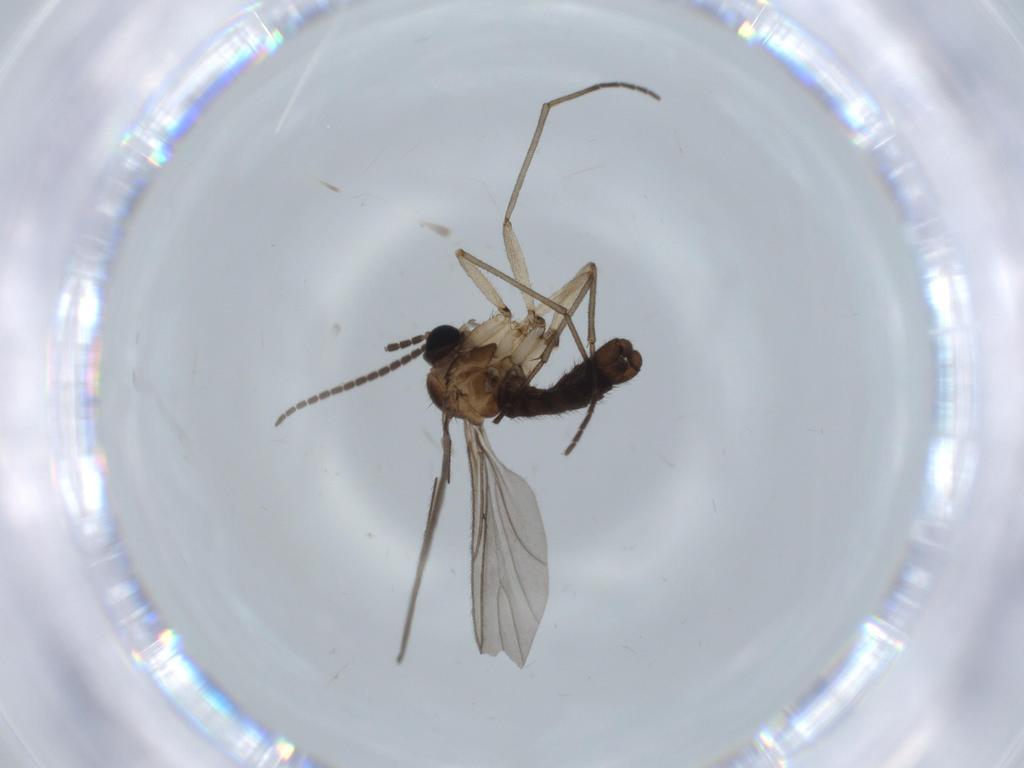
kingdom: Animalia
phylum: Arthropoda
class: Insecta
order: Diptera
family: Sciaridae
